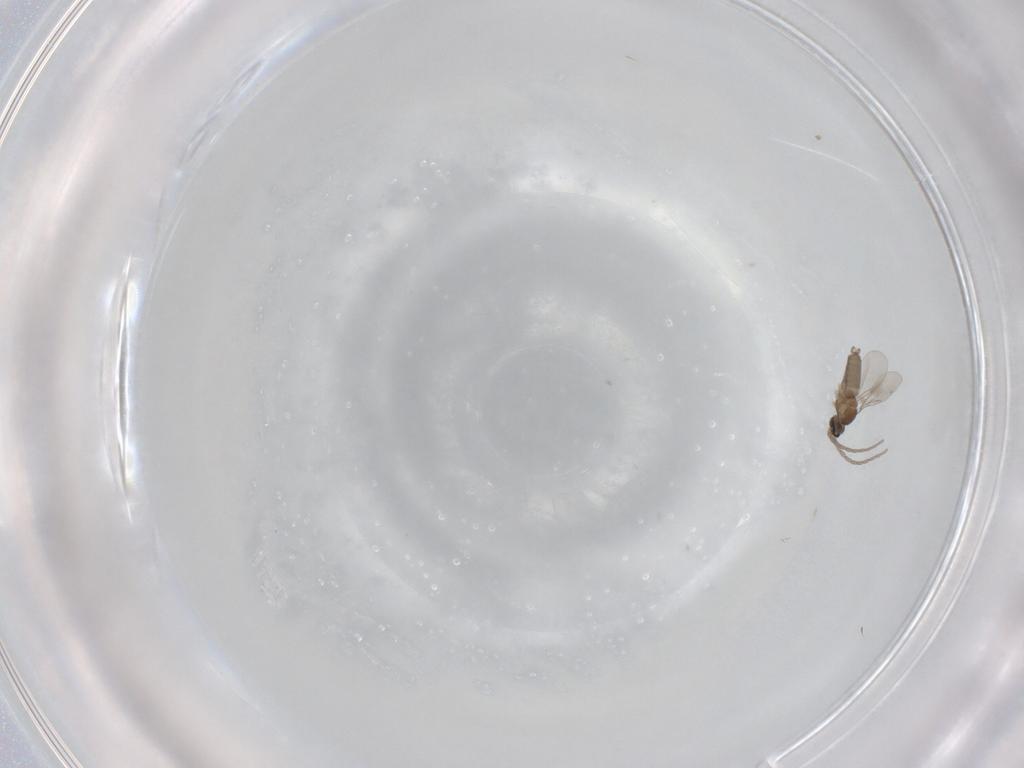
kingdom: Animalia
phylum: Arthropoda
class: Insecta
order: Diptera
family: Cecidomyiidae
